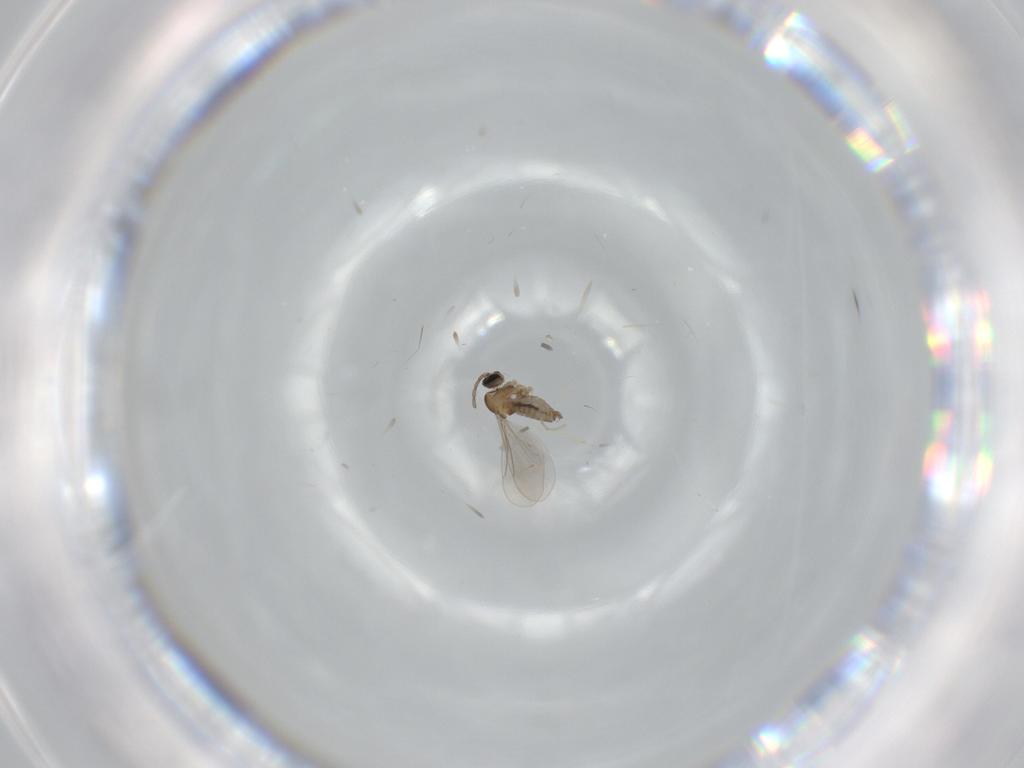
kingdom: Animalia
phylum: Arthropoda
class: Insecta
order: Diptera
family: Cecidomyiidae
